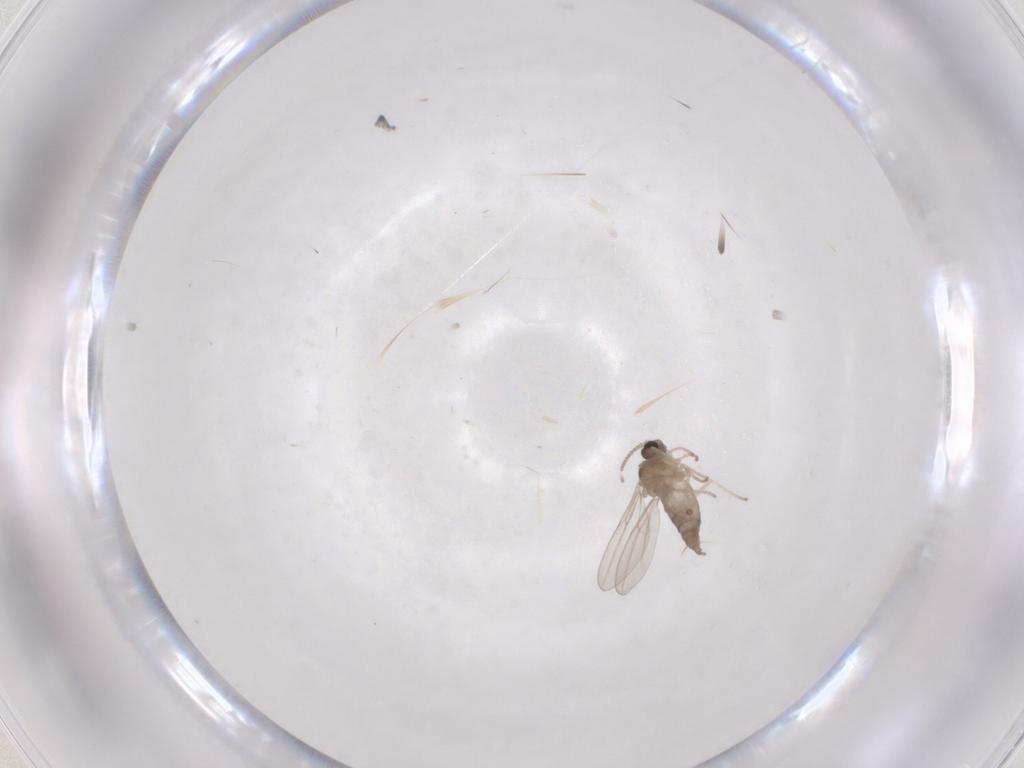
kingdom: Animalia
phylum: Arthropoda
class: Insecta
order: Diptera
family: Cecidomyiidae
